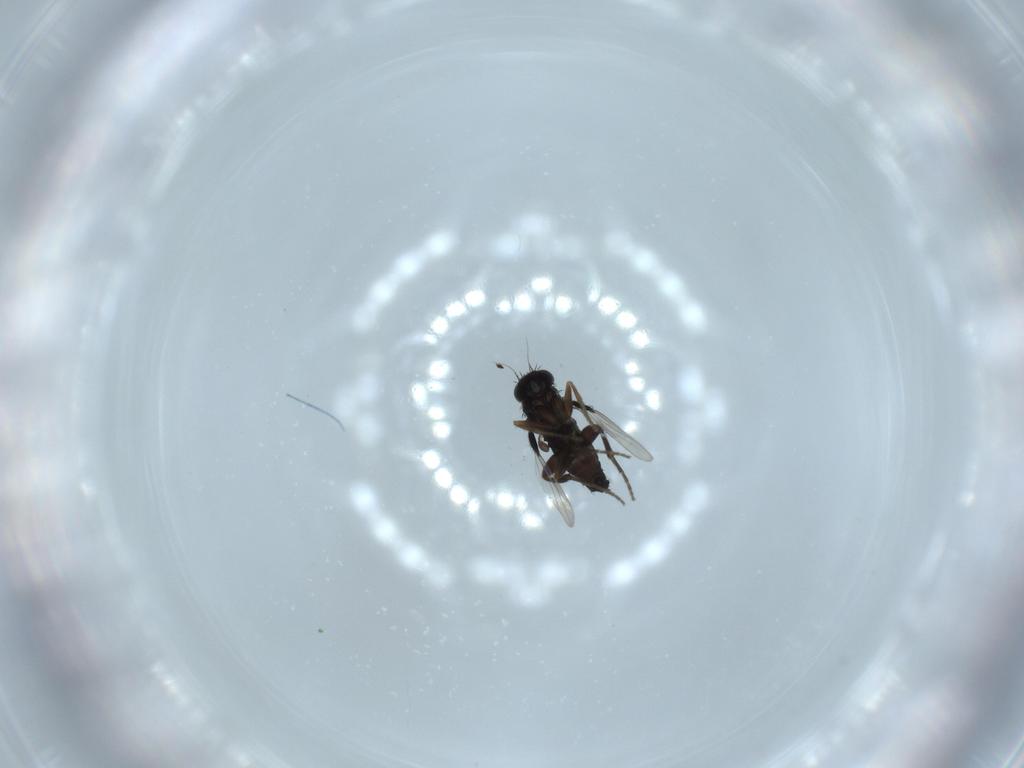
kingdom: Animalia
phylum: Arthropoda
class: Insecta
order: Diptera
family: Phoridae
